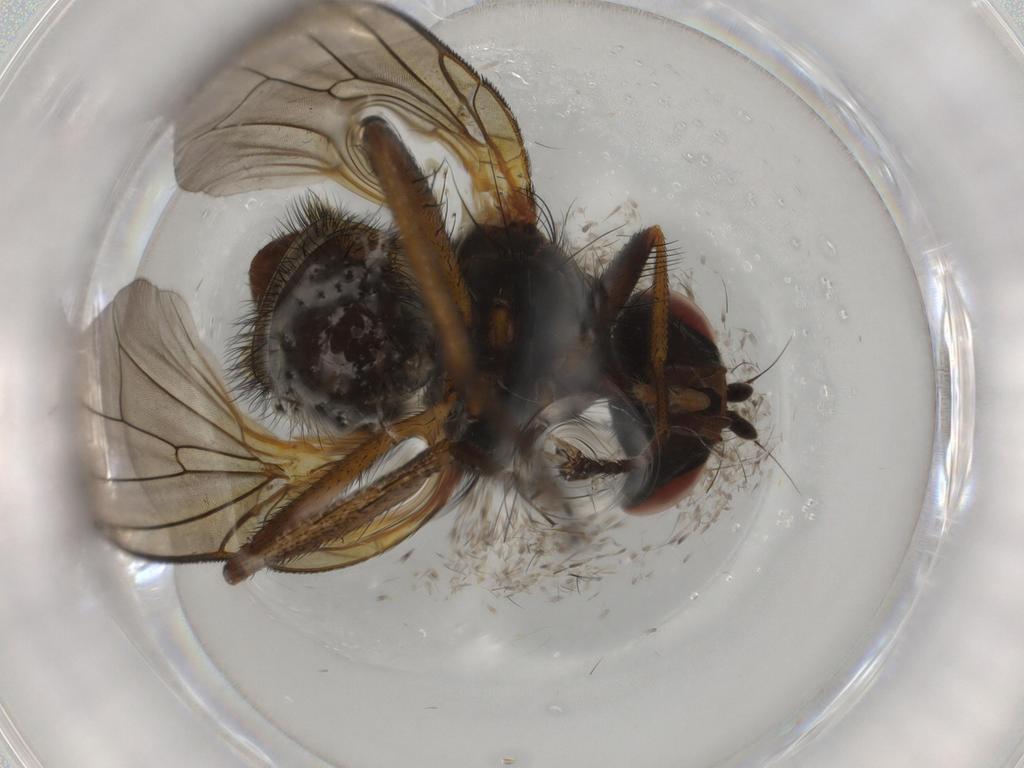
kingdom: Animalia
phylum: Arthropoda
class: Insecta
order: Diptera
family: Anthomyiidae
